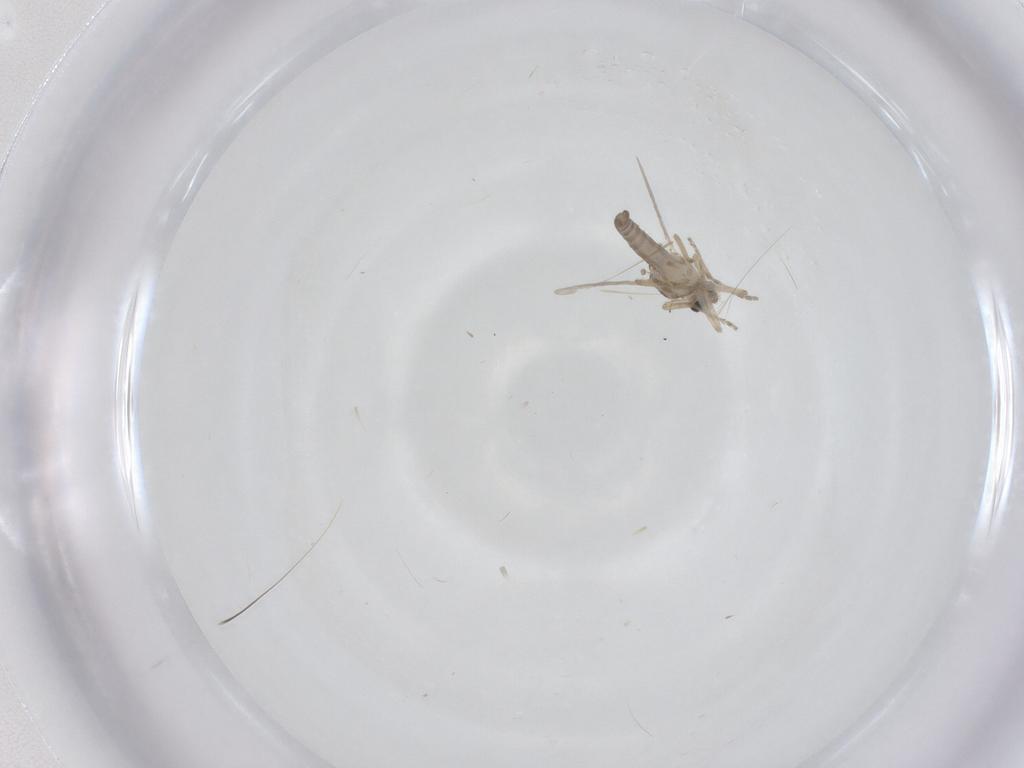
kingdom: Animalia
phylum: Arthropoda
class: Insecta
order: Diptera
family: Ceratopogonidae
